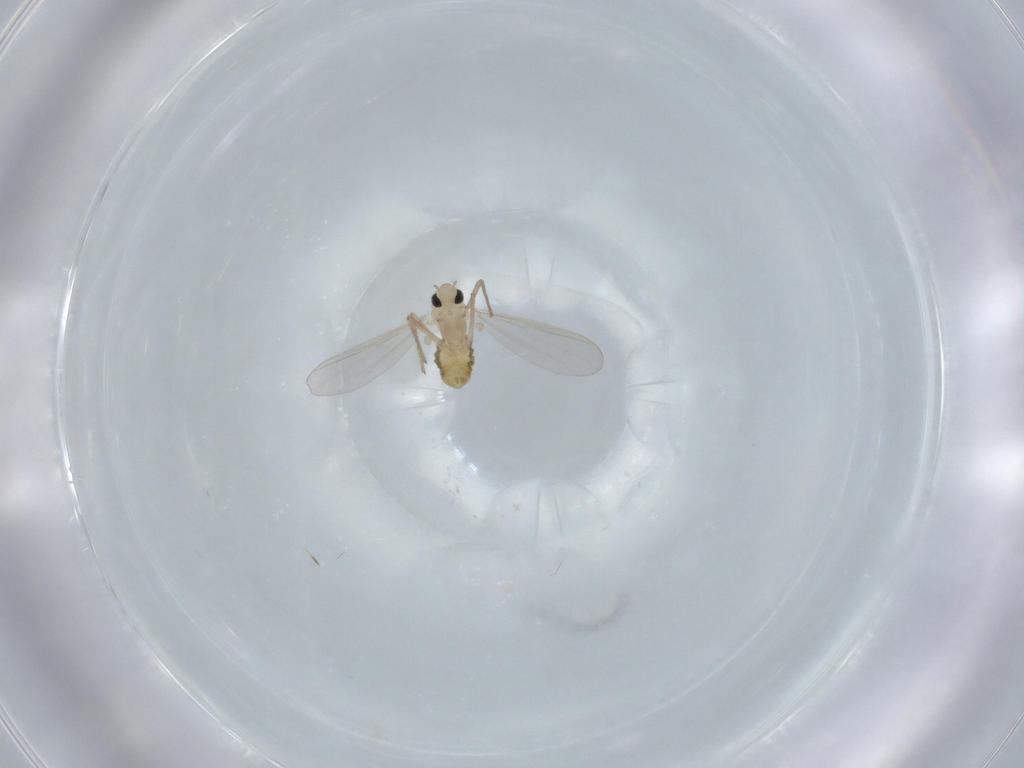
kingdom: Animalia
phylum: Arthropoda
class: Insecta
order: Diptera
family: Chironomidae
